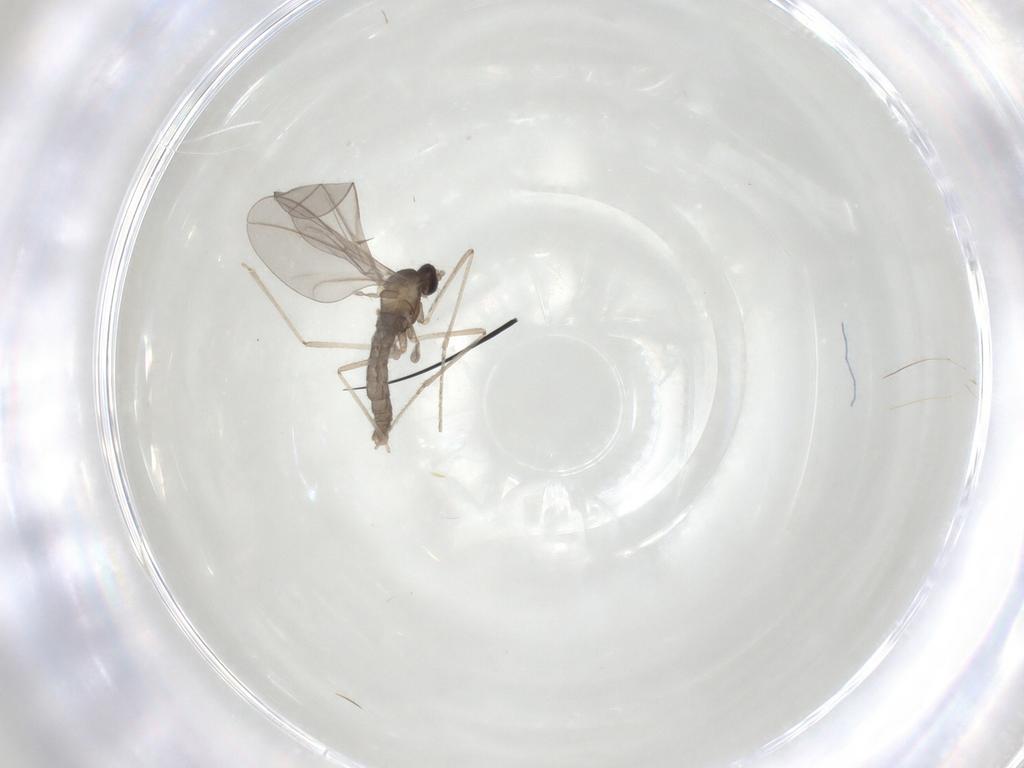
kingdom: Animalia
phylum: Arthropoda
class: Insecta
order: Diptera
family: Cecidomyiidae
